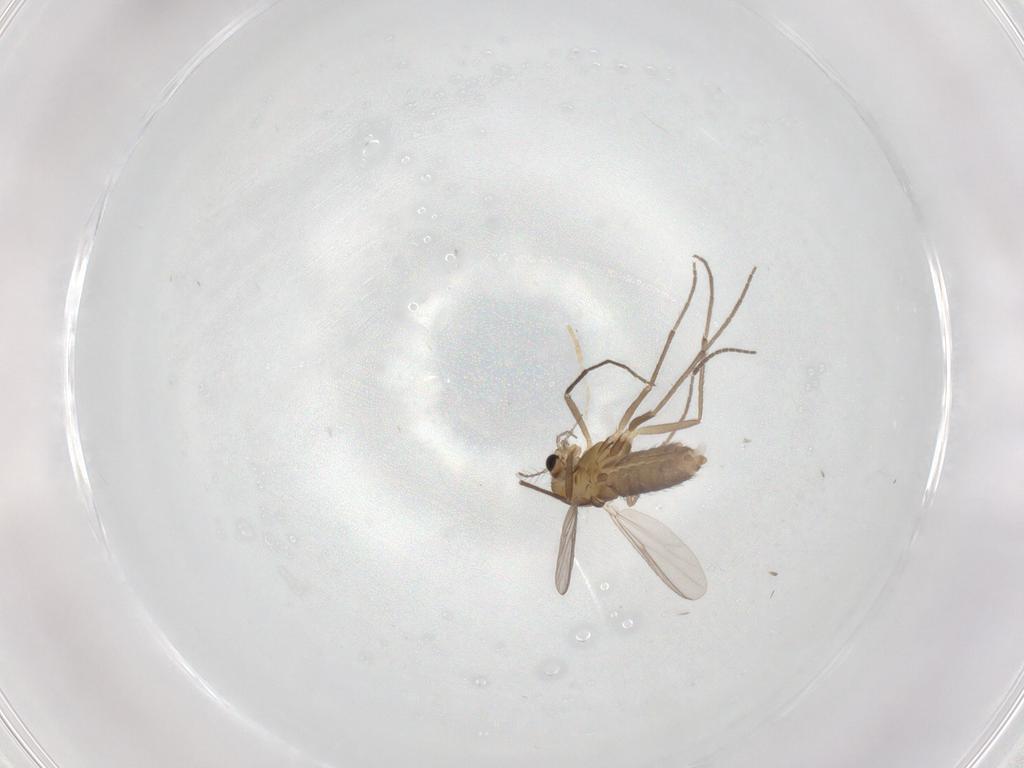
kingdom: Animalia
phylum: Arthropoda
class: Insecta
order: Diptera
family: Chironomidae
